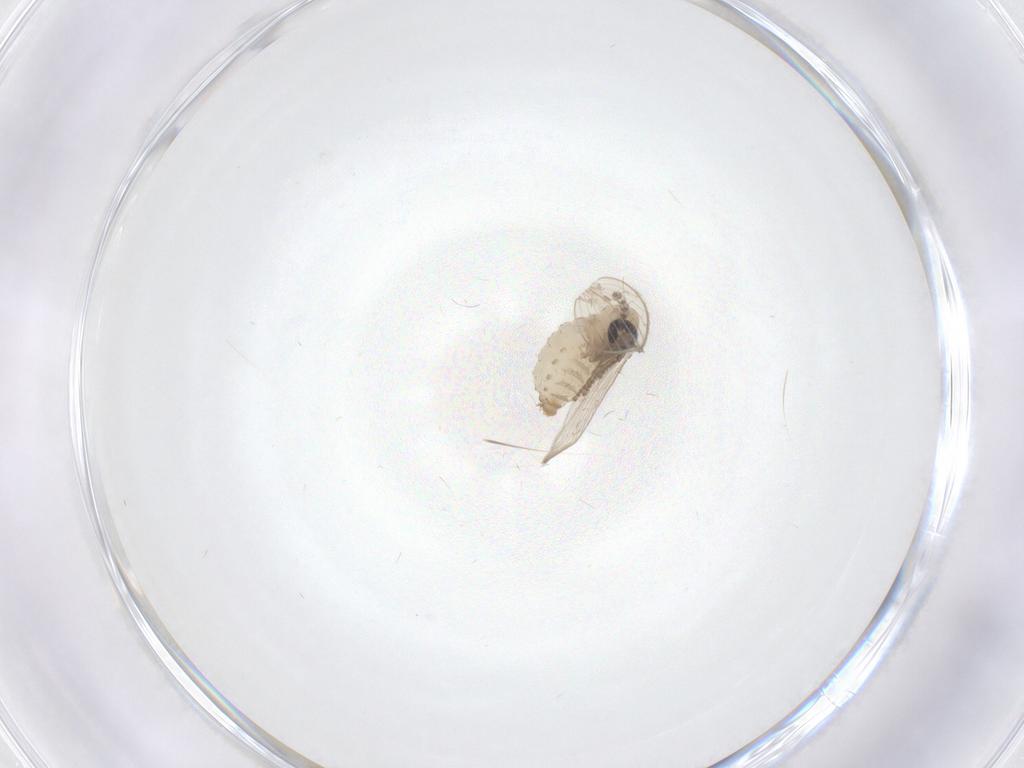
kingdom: Animalia
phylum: Arthropoda
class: Insecta
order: Diptera
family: Psychodidae
